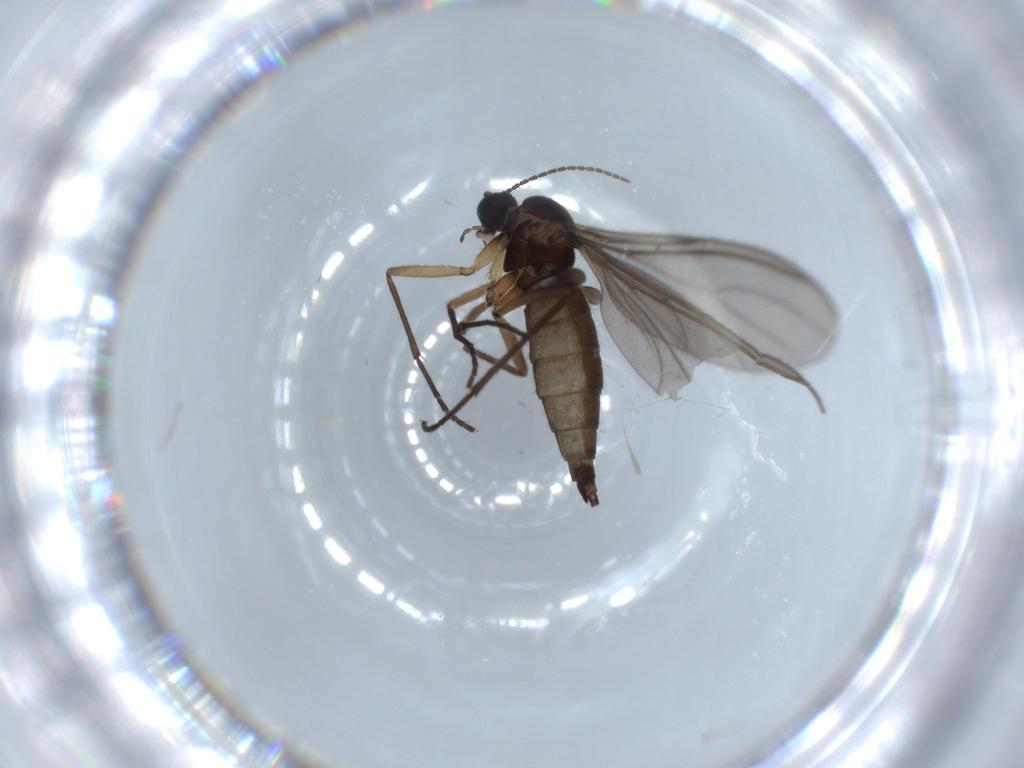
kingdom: Animalia
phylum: Arthropoda
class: Insecta
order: Diptera
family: Sciaridae
